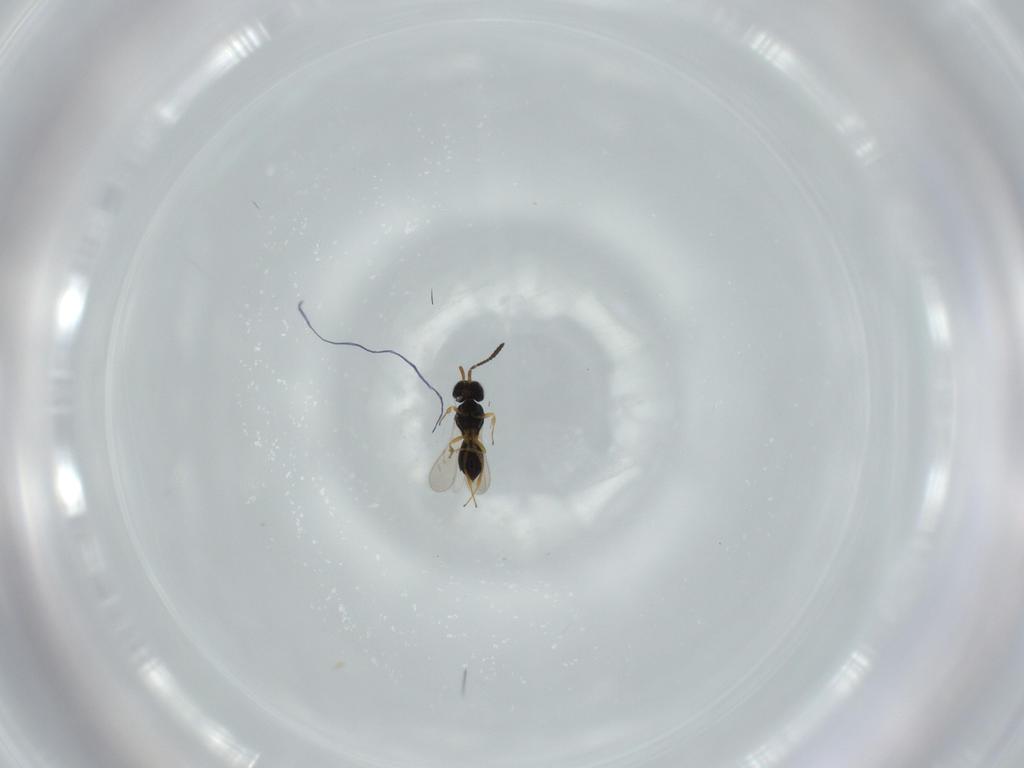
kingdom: Animalia
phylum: Arthropoda
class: Insecta
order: Hymenoptera
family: Scelionidae
